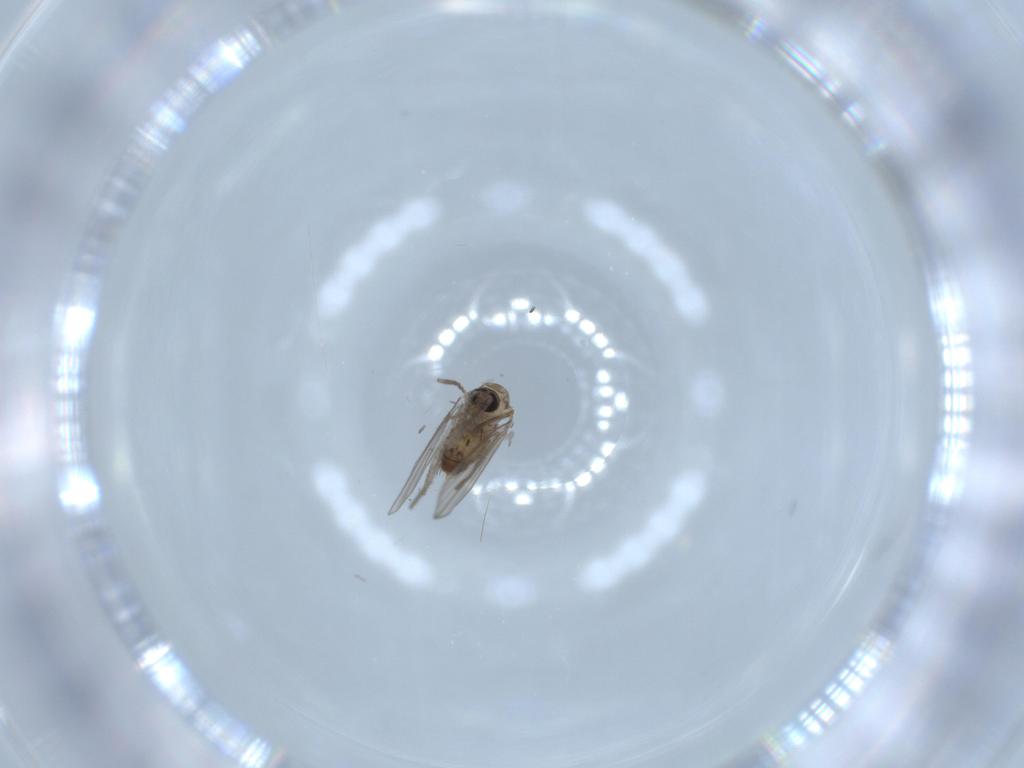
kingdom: Animalia
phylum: Arthropoda
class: Insecta
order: Diptera
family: Psychodidae
